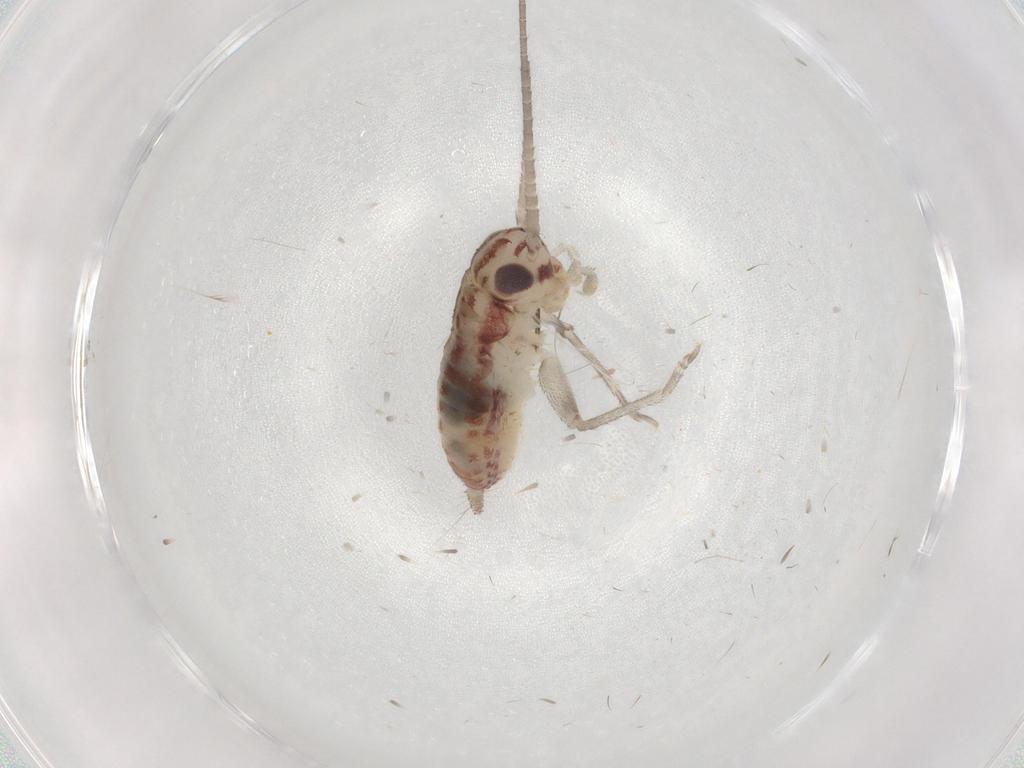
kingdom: Animalia
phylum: Arthropoda
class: Insecta
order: Orthoptera
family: Trigonidiidae
